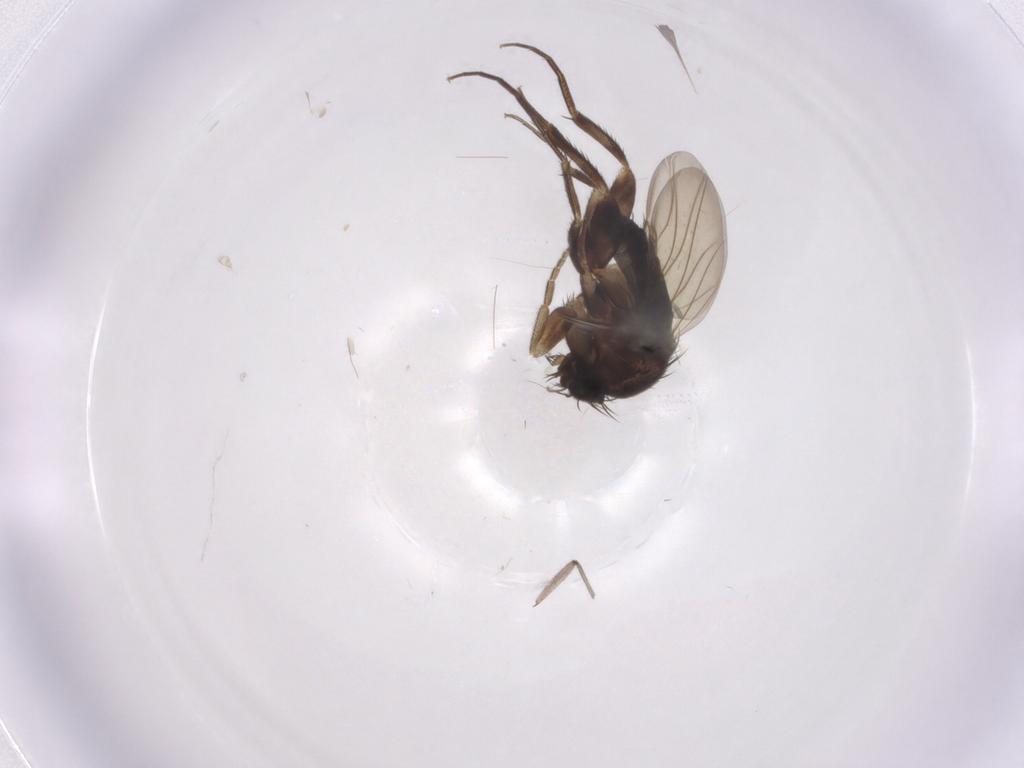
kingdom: Animalia
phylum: Arthropoda
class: Insecta
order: Diptera
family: Phoridae
